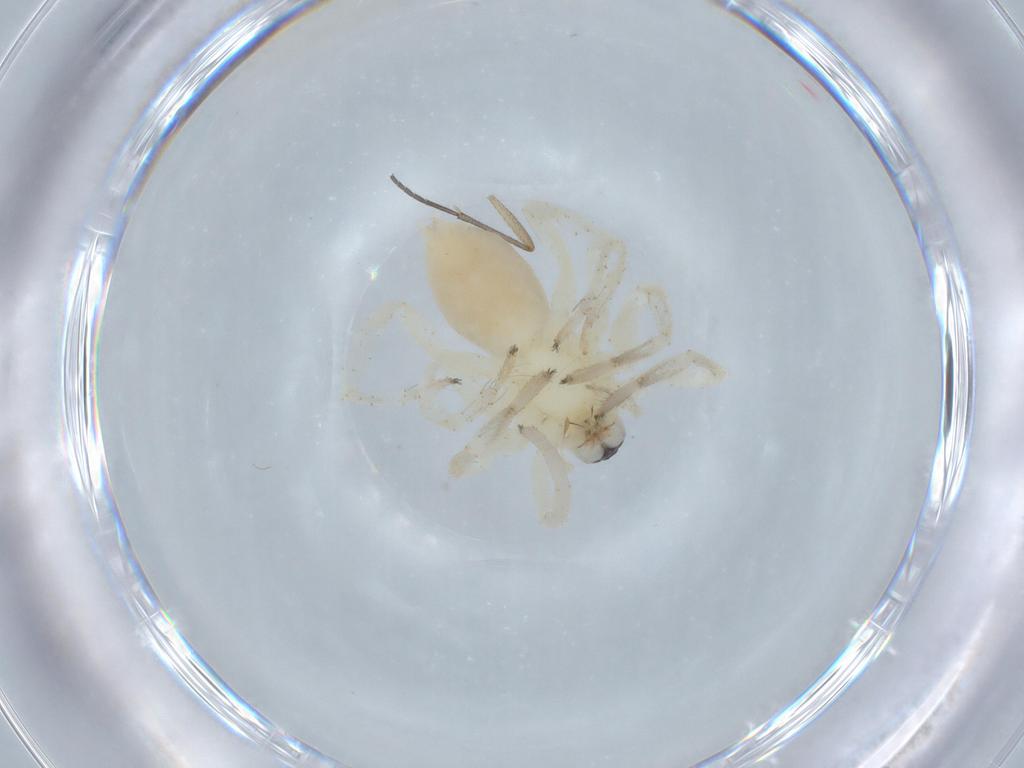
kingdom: Animalia
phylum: Arthropoda
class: Arachnida
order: Araneae
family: Anyphaenidae
